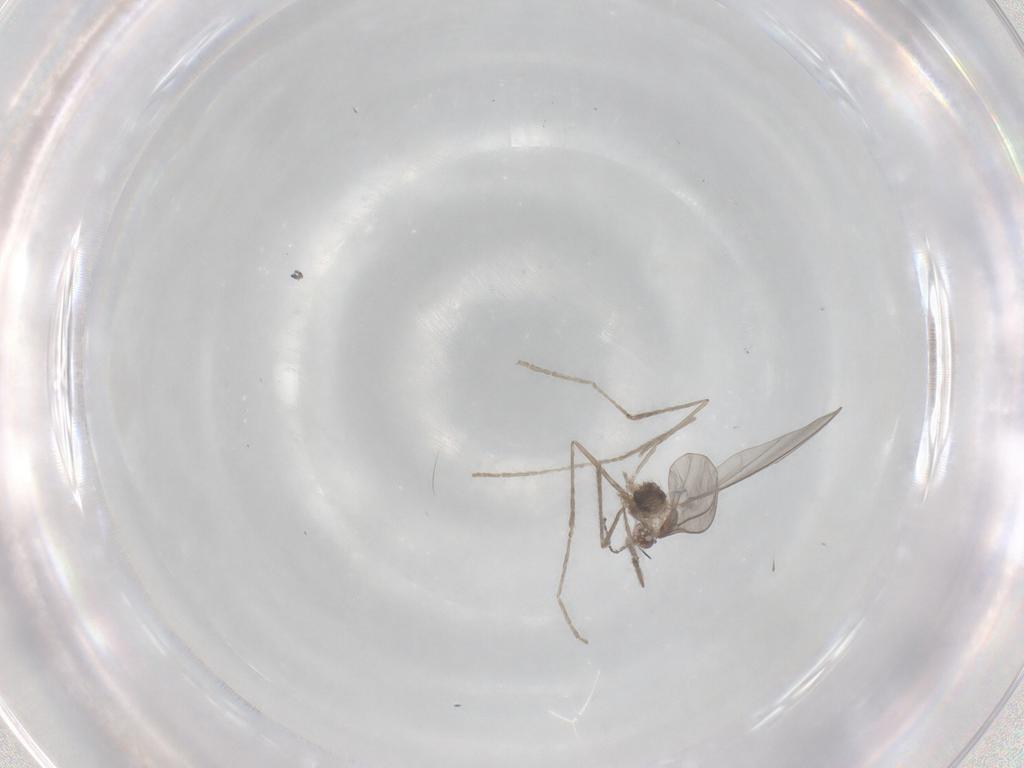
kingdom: Animalia
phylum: Arthropoda
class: Insecta
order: Diptera
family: Cecidomyiidae
